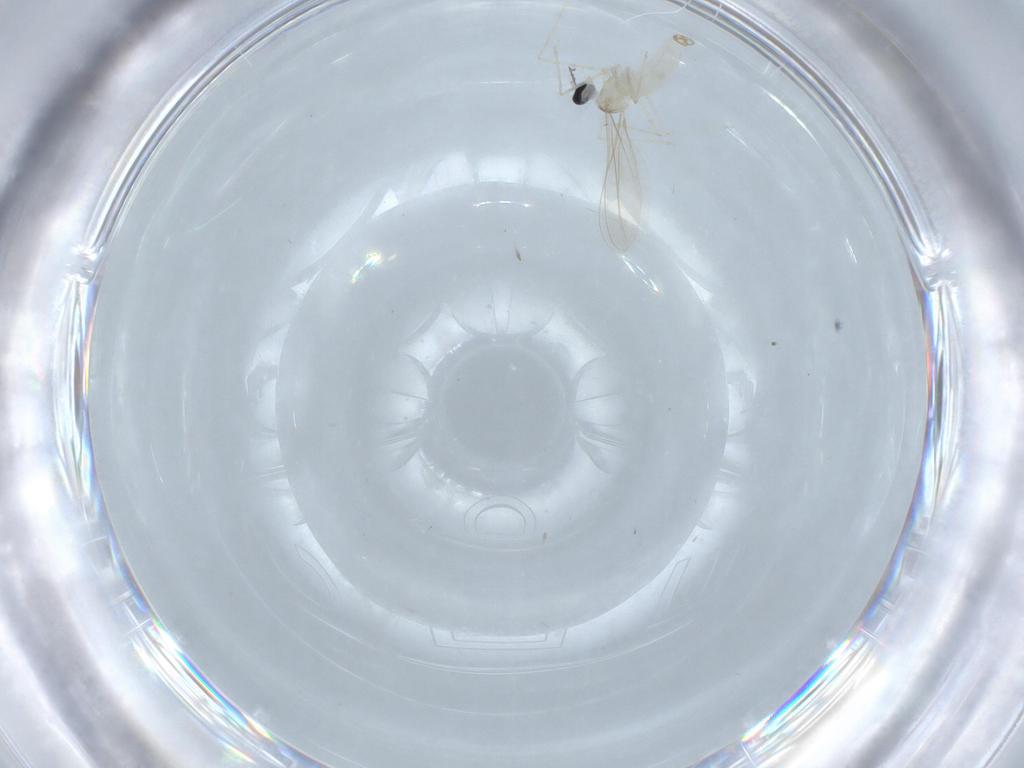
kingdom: Animalia
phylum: Arthropoda
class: Insecta
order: Diptera
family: Cecidomyiidae
